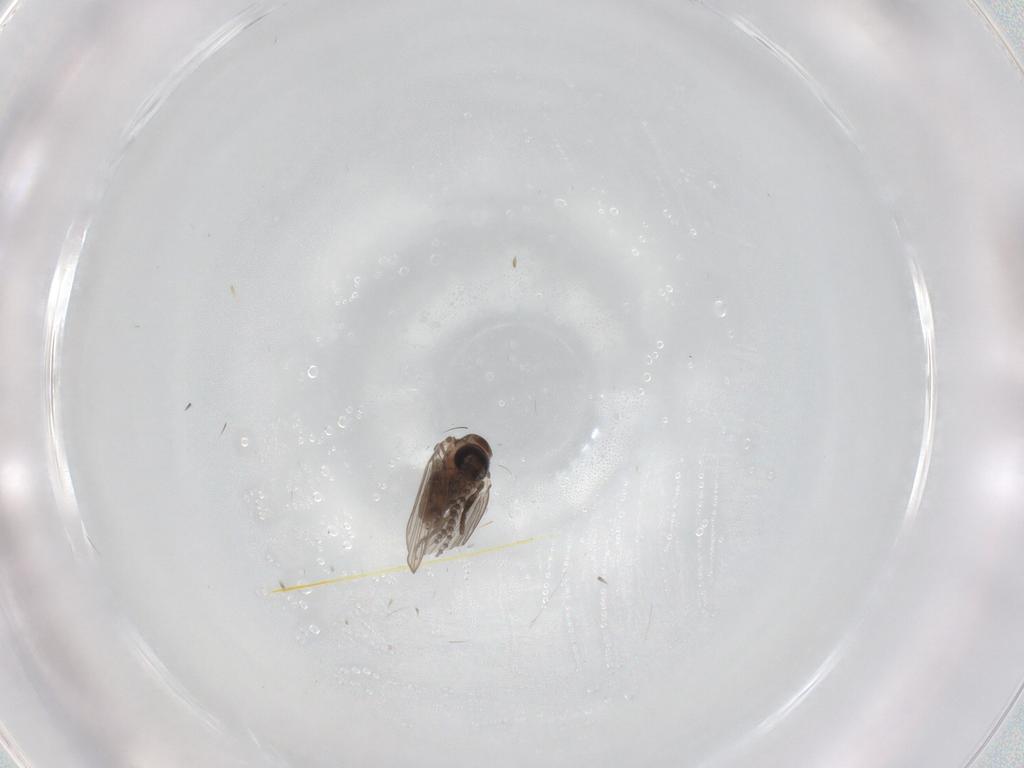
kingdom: Animalia
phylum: Arthropoda
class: Insecta
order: Diptera
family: Psychodidae
